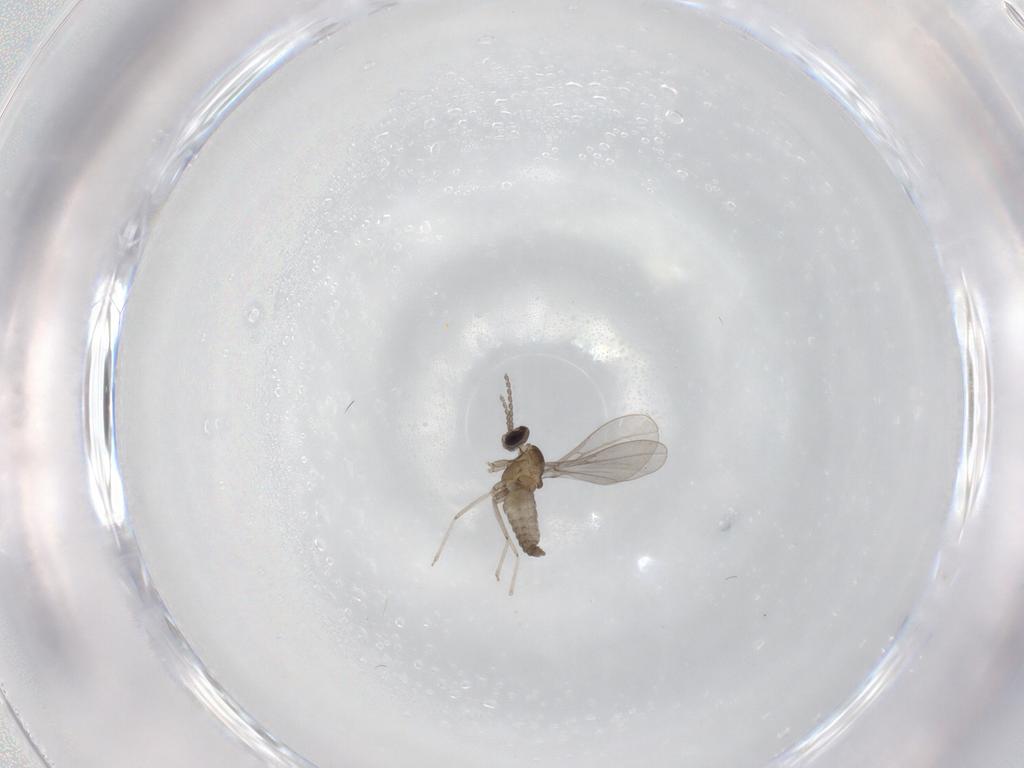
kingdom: Animalia
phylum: Arthropoda
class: Insecta
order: Diptera
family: Cecidomyiidae
